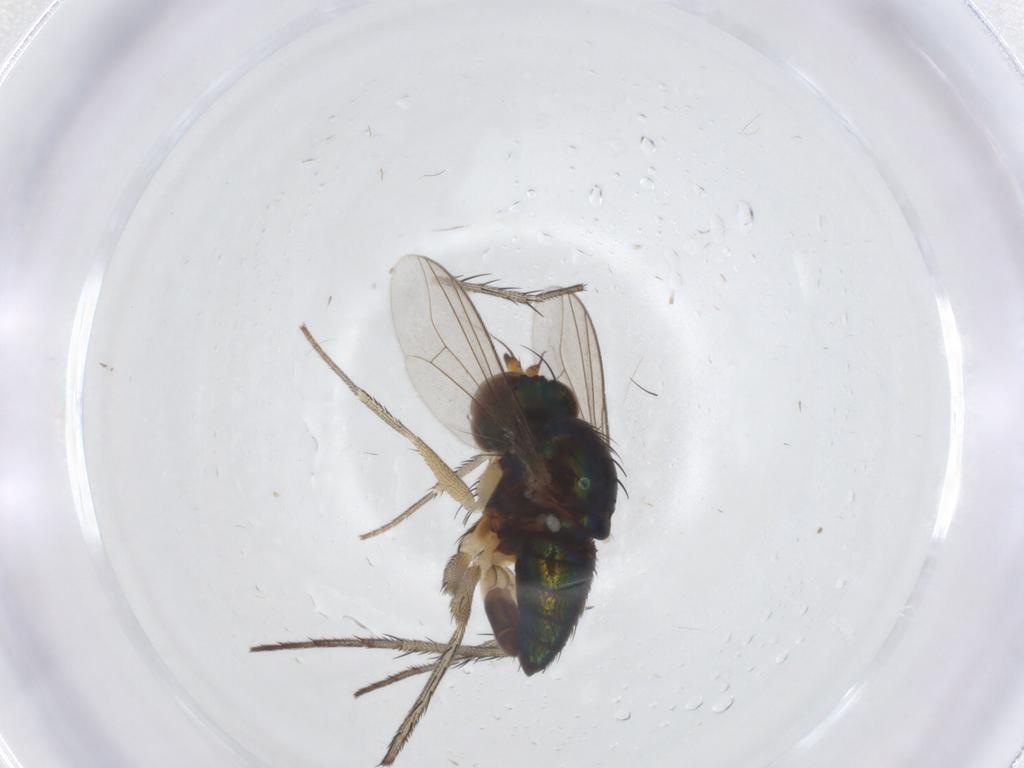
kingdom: Animalia
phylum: Arthropoda
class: Insecta
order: Diptera
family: Dolichopodidae
